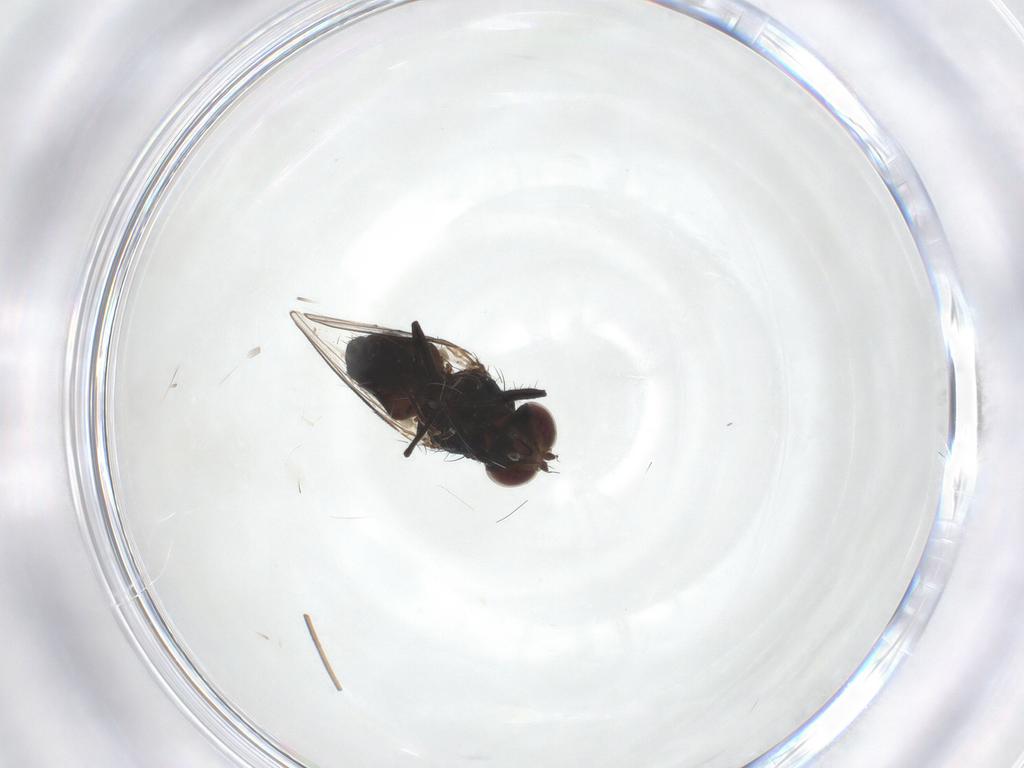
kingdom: Animalia
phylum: Arthropoda
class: Insecta
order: Diptera
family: Carnidae
